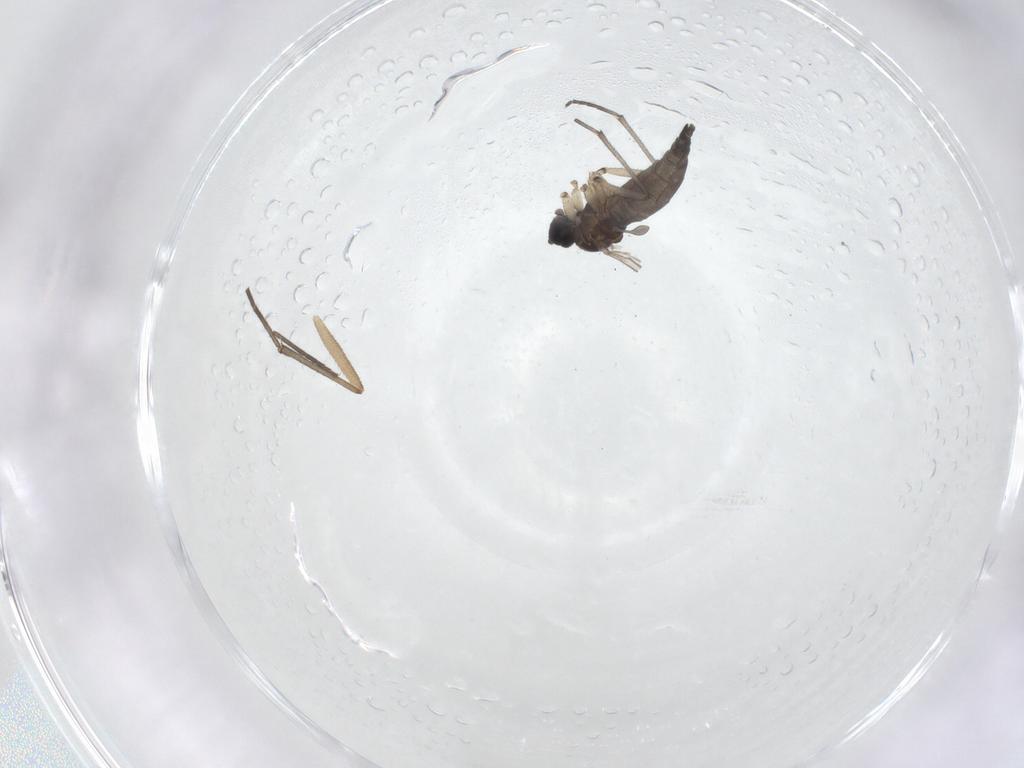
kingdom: Animalia
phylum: Arthropoda
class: Insecta
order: Diptera
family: Sciaridae
